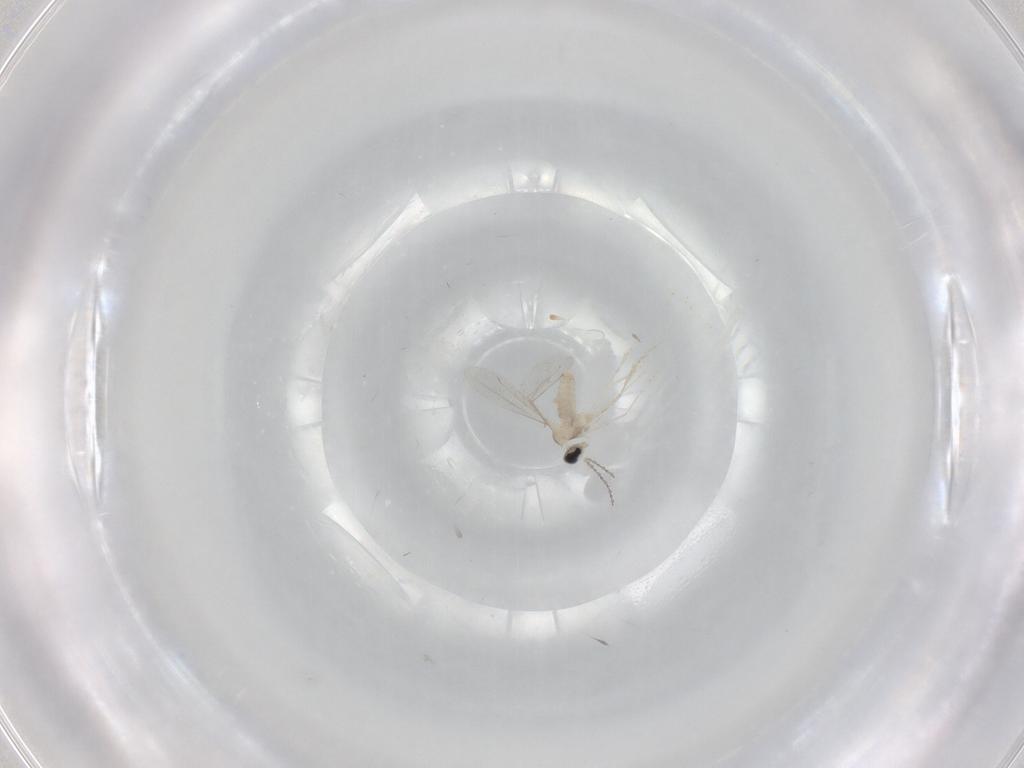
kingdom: Animalia
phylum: Arthropoda
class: Insecta
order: Diptera
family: Cecidomyiidae
